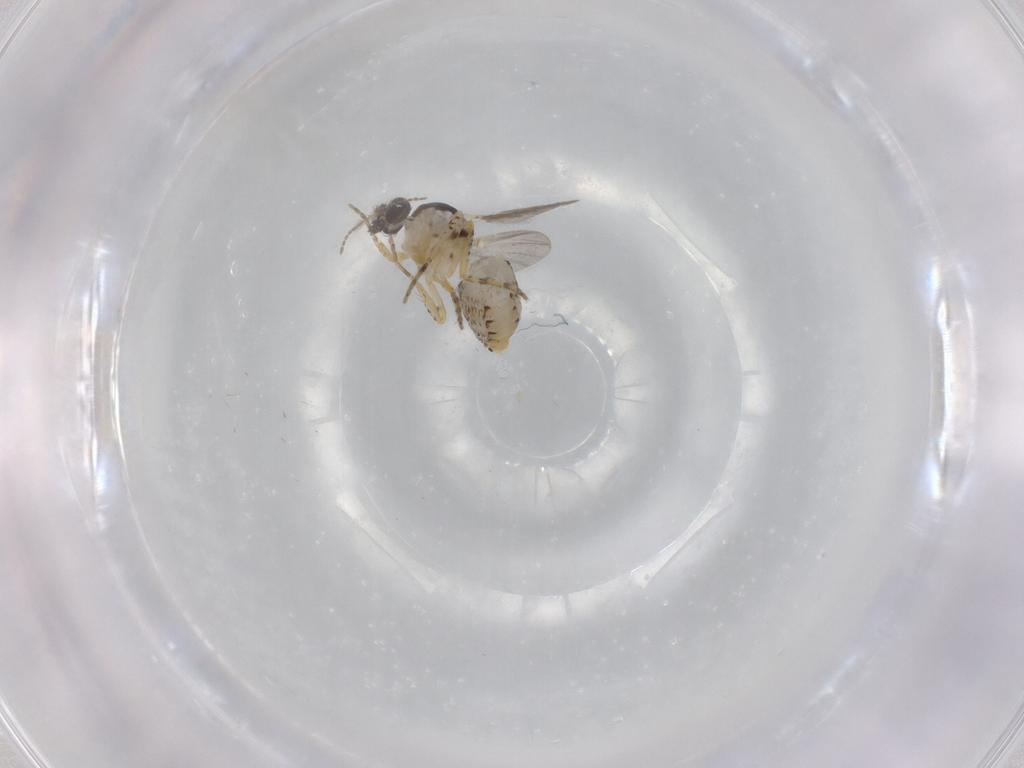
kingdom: Animalia
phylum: Arthropoda
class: Insecta
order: Diptera
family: Ceratopogonidae
